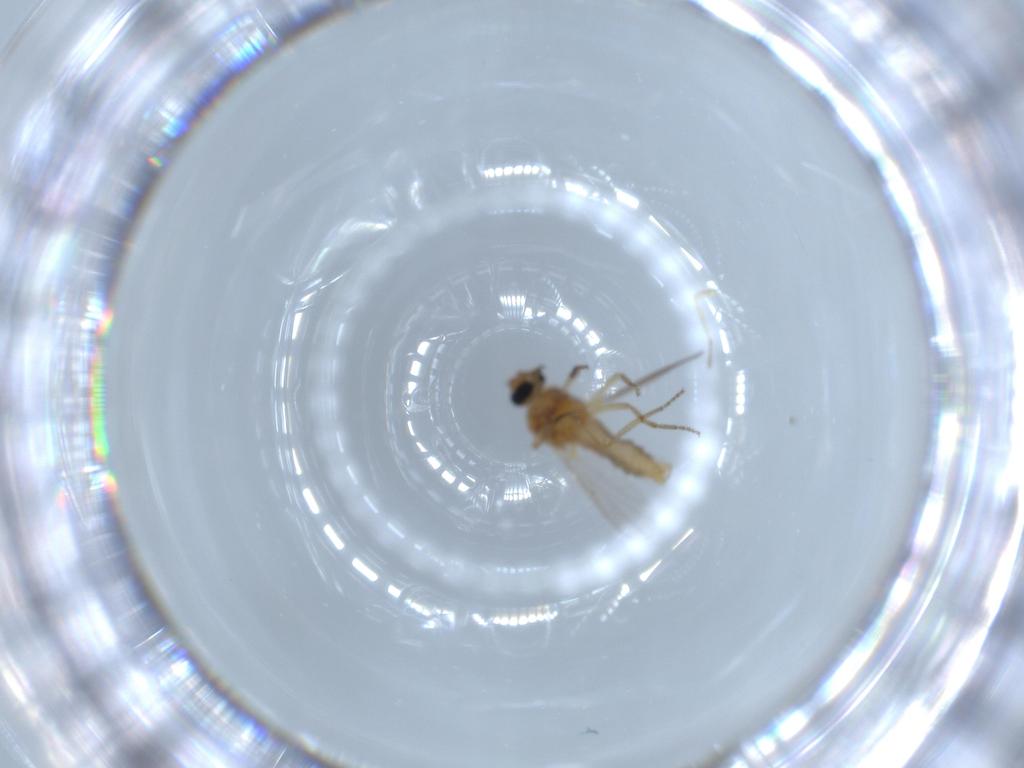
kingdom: Animalia
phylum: Arthropoda
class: Insecta
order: Diptera
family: Ceratopogonidae
